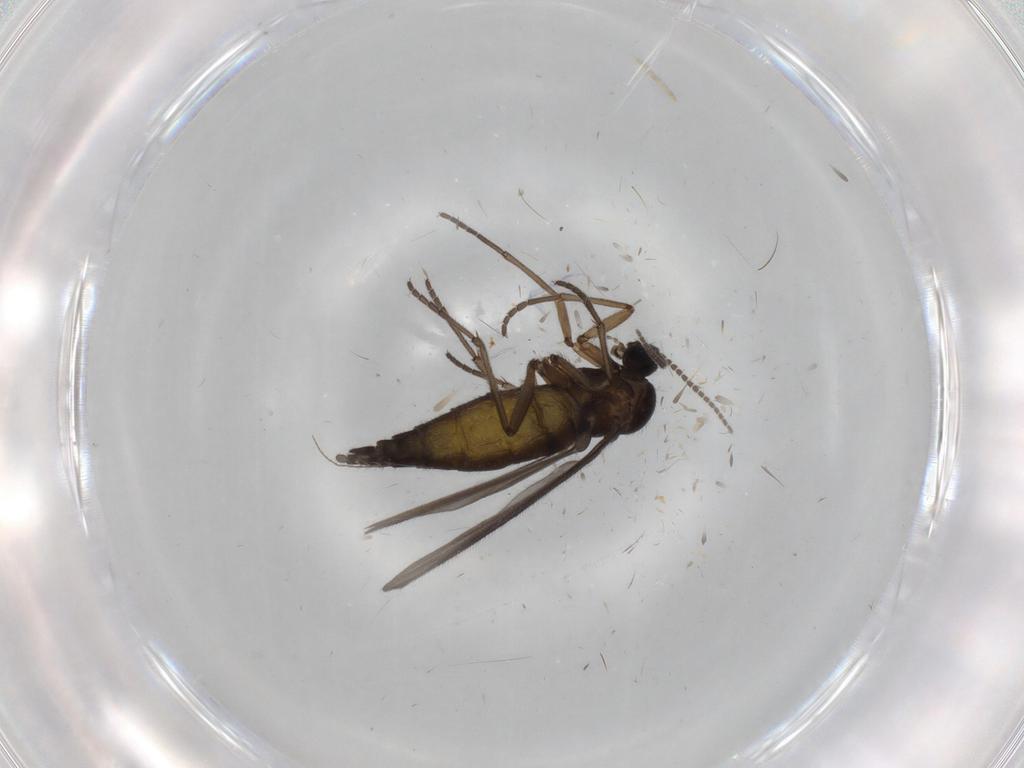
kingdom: Animalia
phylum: Arthropoda
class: Insecta
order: Diptera
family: Sciaridae
